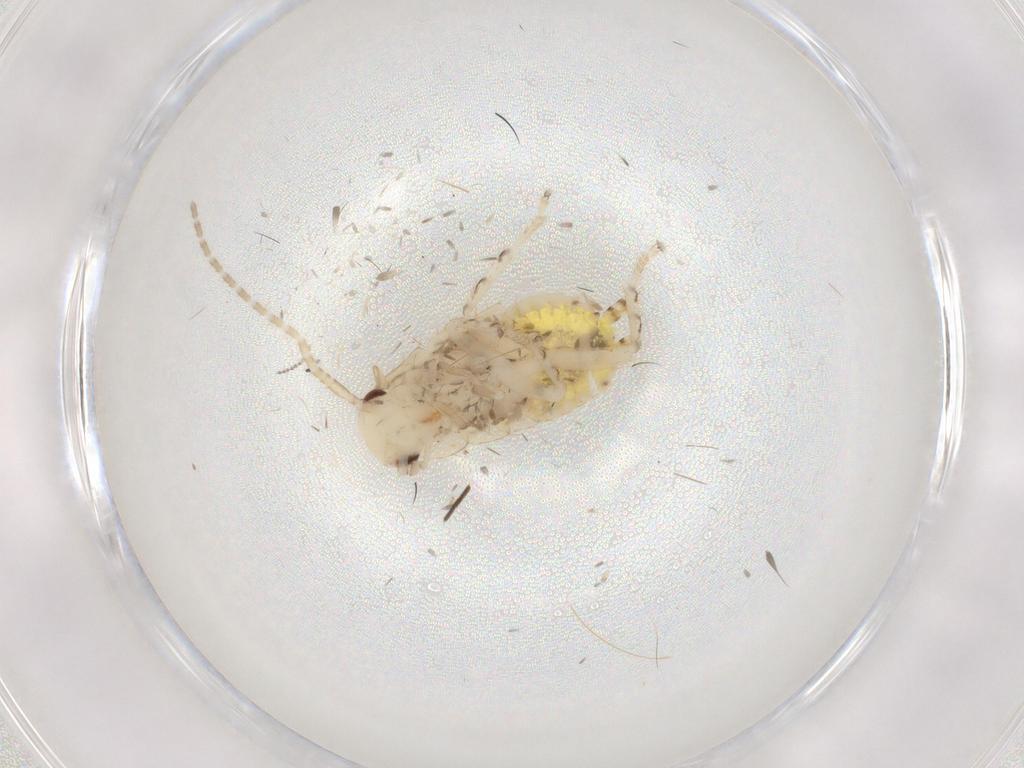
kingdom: Animalia
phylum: Arthropoda
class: Insecta
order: Blattodea
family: Ectobiidae
